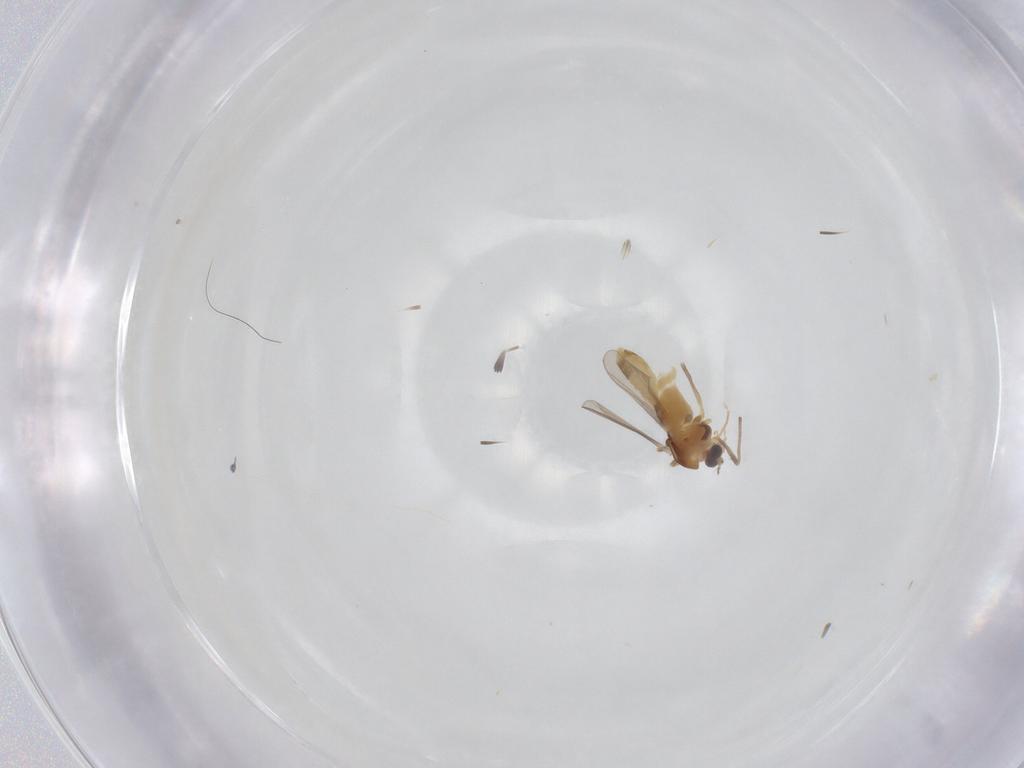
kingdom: Animalia
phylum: Arthropoda
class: Insecta
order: Diptera
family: Chironomidae
